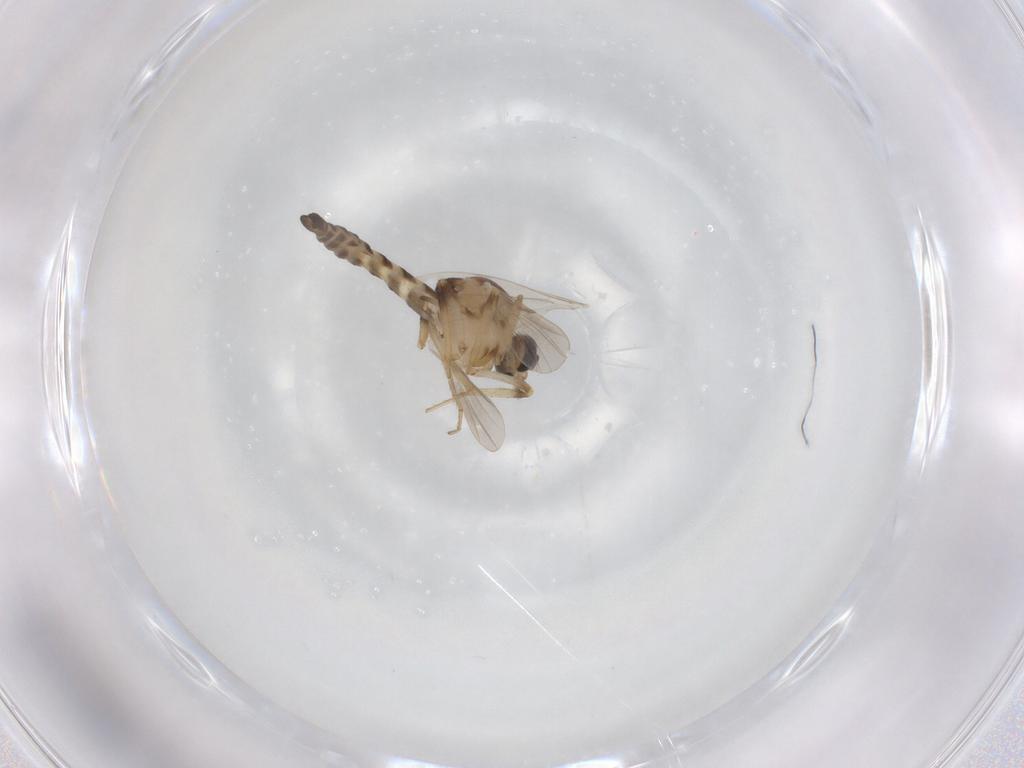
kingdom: Animalia
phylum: Arthropoda
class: Insecta
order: Diptera
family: Ceratopogonidae
